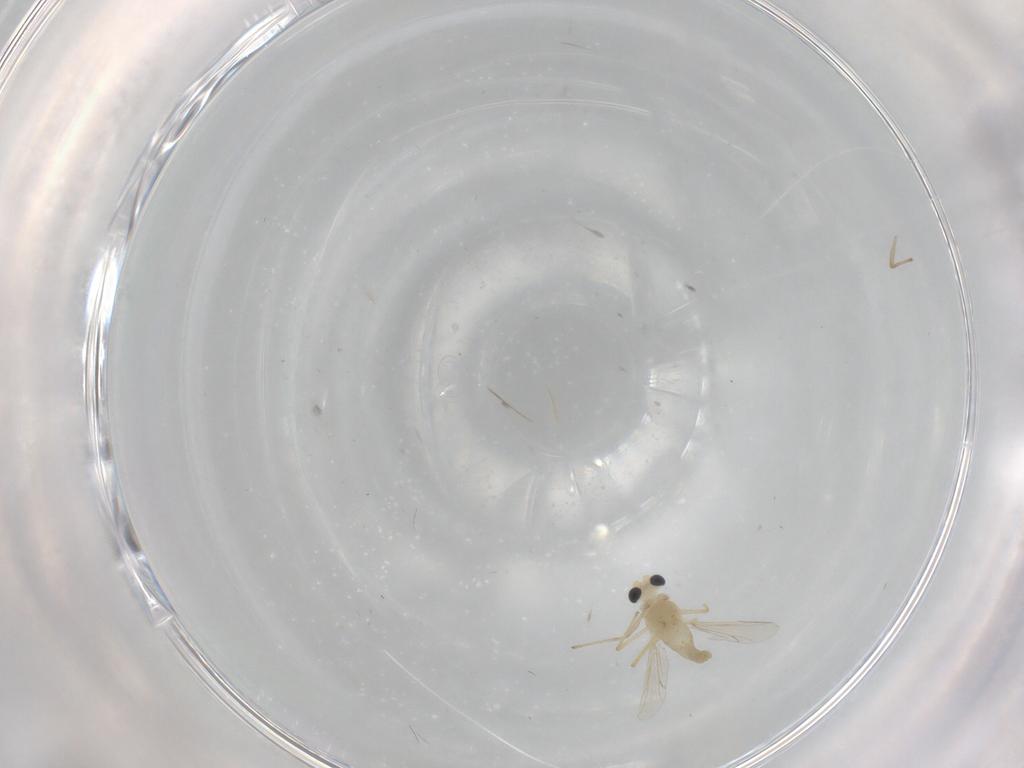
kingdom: Animalia
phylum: Arthropoda
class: Insecta
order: Diptera
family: Chironomidae
